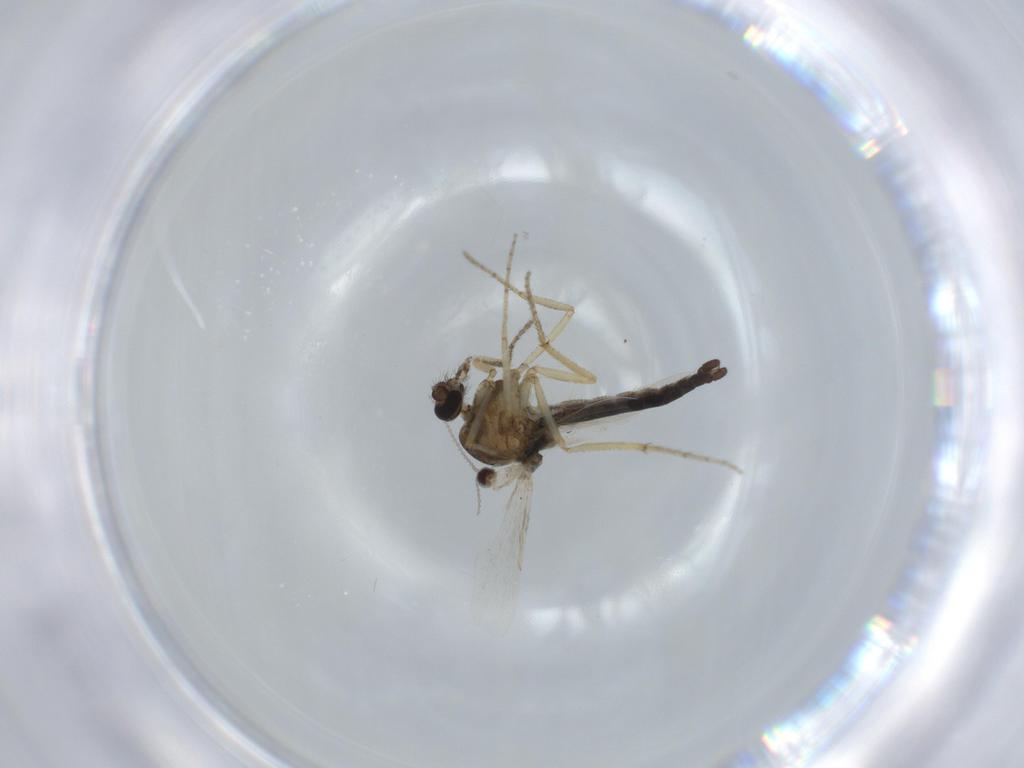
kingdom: Animalia
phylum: Arthropoda
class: Insecta
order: Diptera
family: Ceratopogonidae
